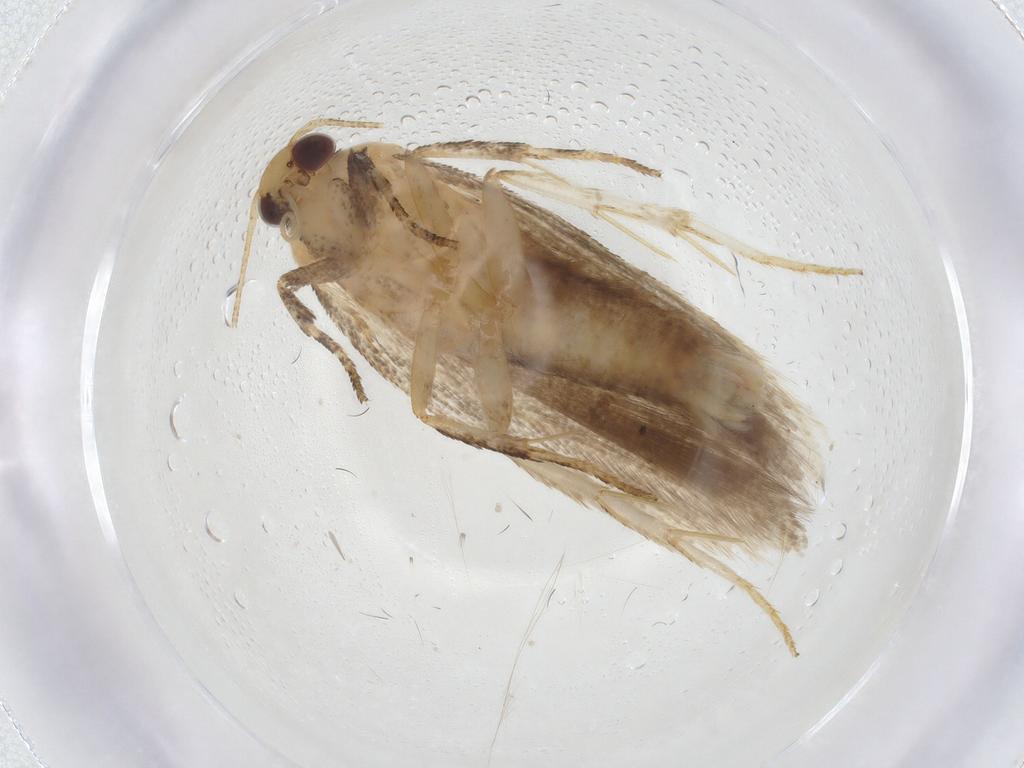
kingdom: Animalia
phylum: Arthropoda
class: Insecta
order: Lepidoptera
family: Gelechiidae
